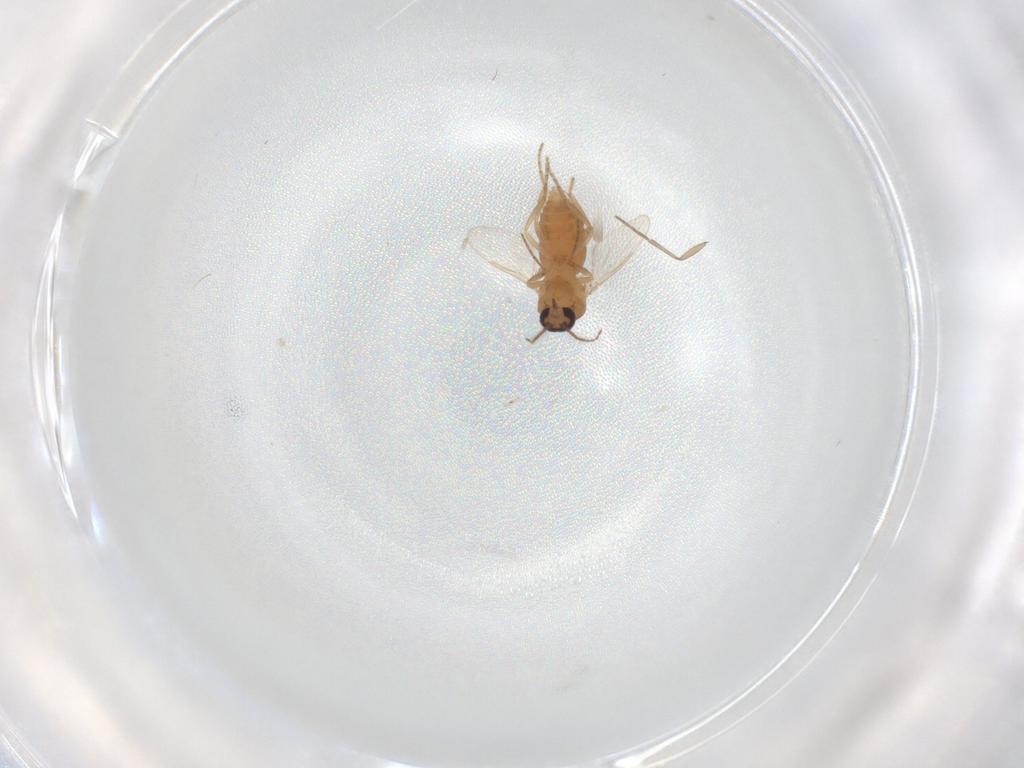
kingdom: Animalia
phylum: Arthropoda
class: Insecta
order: Diptera
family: Ceratopogonidae
